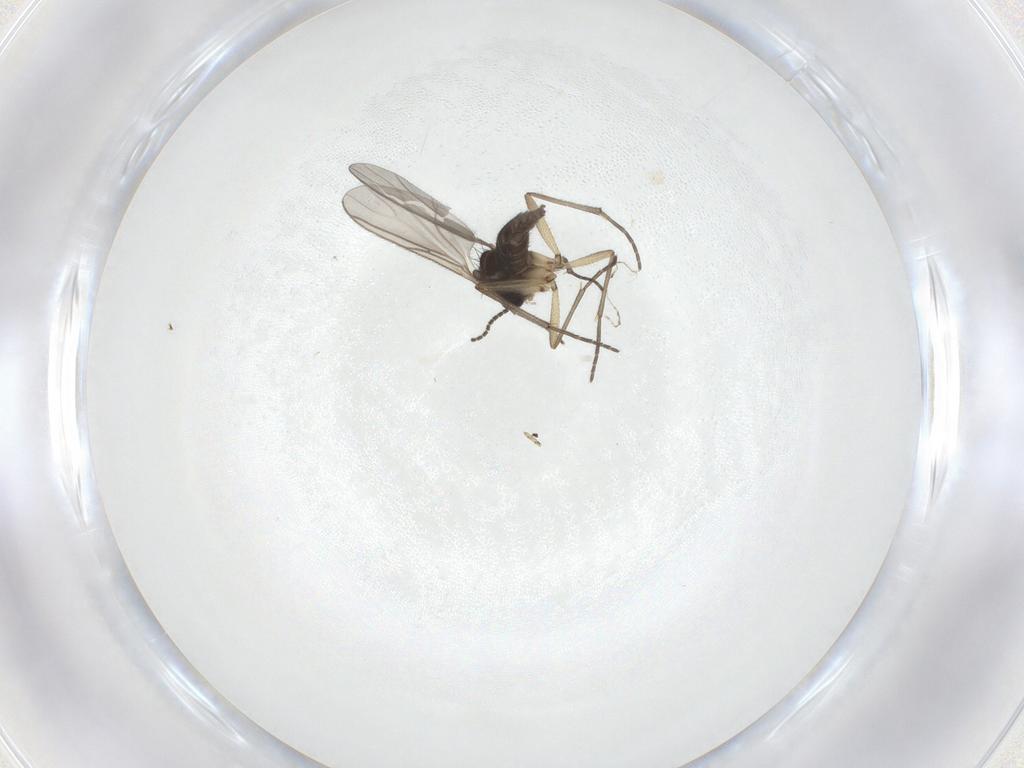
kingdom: Animalia
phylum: Arthropoda
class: Insecta
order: Diptera
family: Sciaridae
